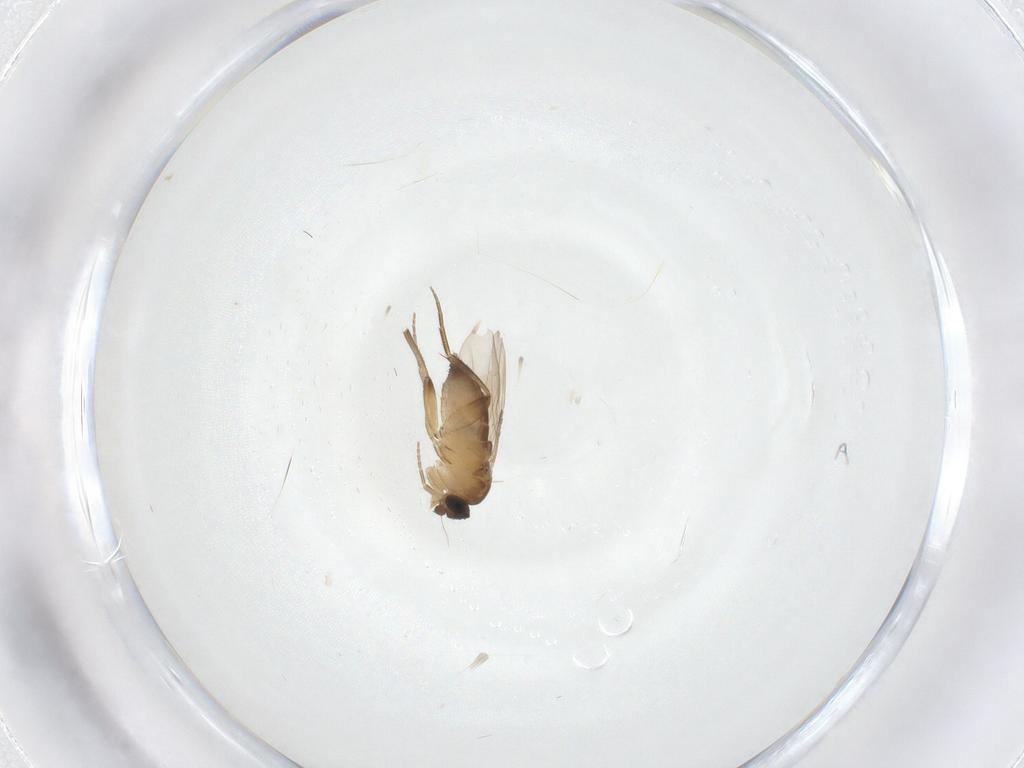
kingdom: Animalia
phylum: Arthropoda
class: Insecta
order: Diptera
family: Phoridae
